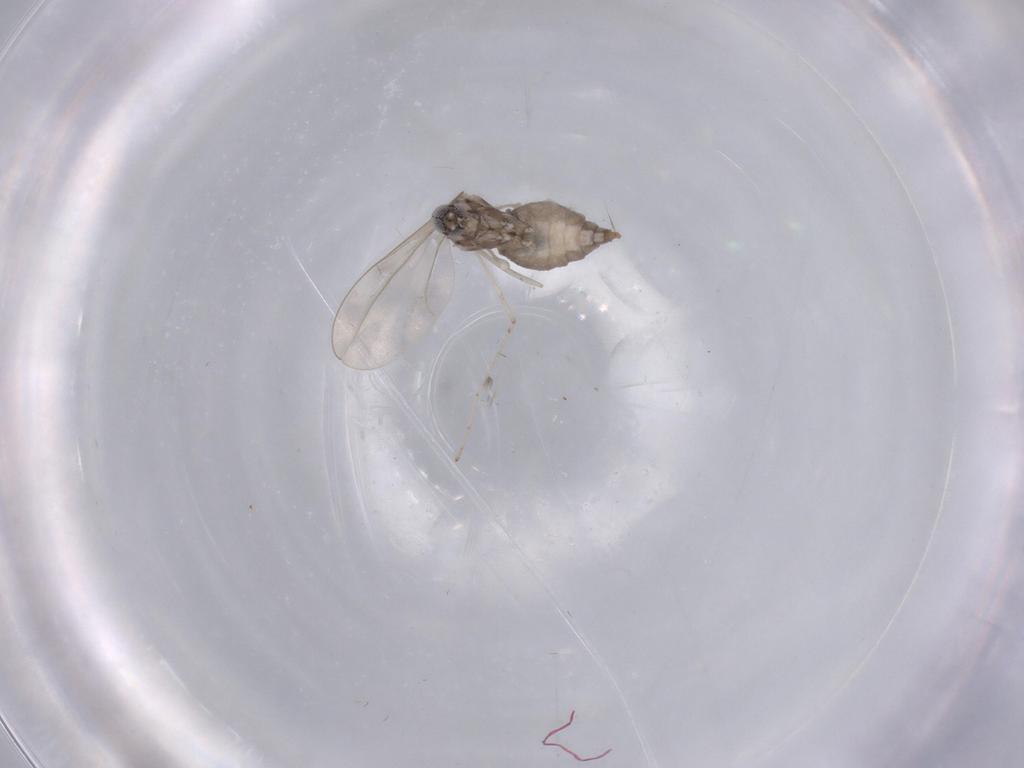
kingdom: Animalia
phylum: Arthropoda
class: Insecta
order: Diptera
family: Cecidomyiidae
